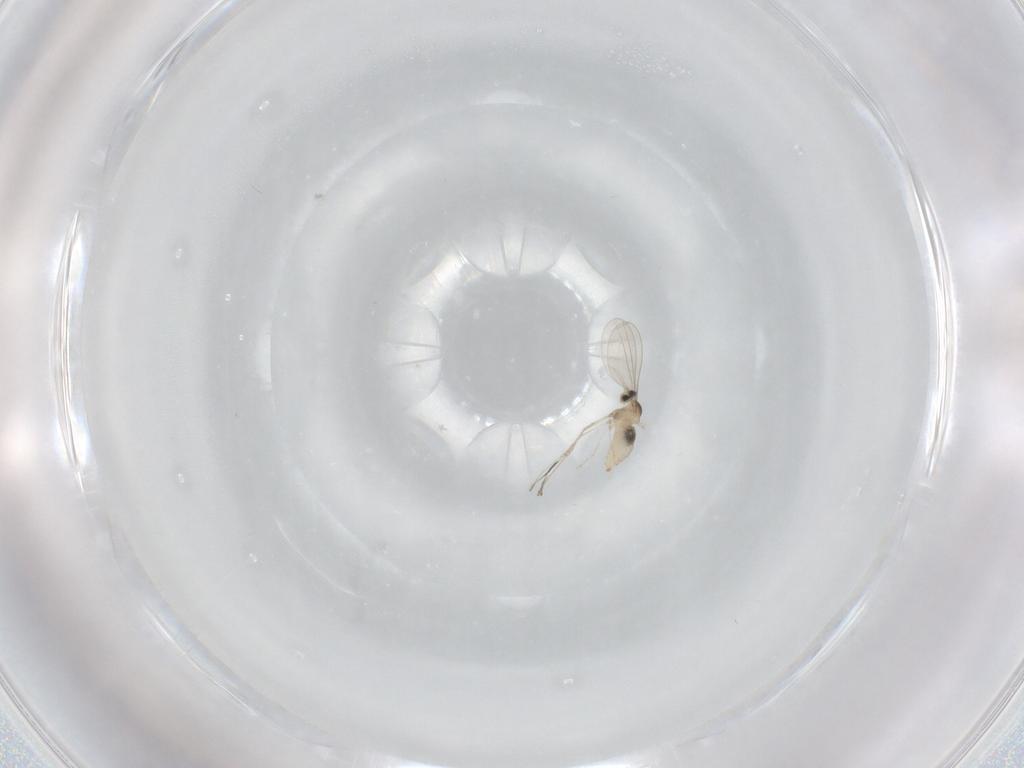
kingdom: Animalia
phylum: Arthropoda
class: Insecta
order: Diptera
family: Cecidomyiidae
